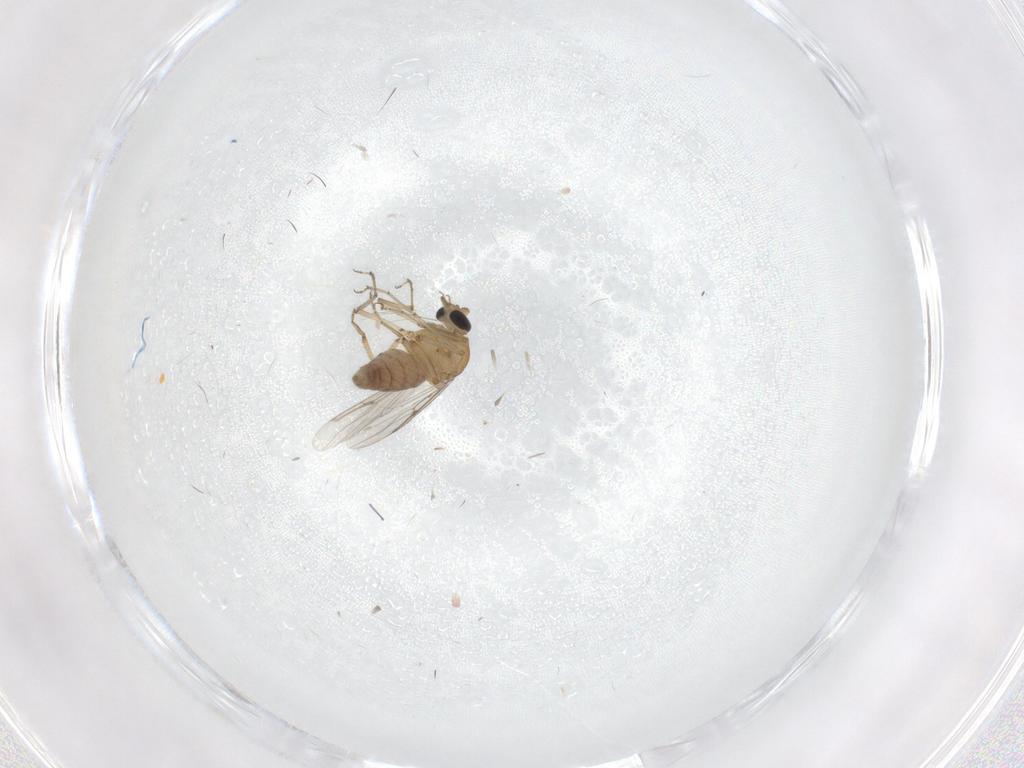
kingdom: Animalia
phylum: Arthropoda
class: Insecta
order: Diptera
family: Ceratopogonidae
